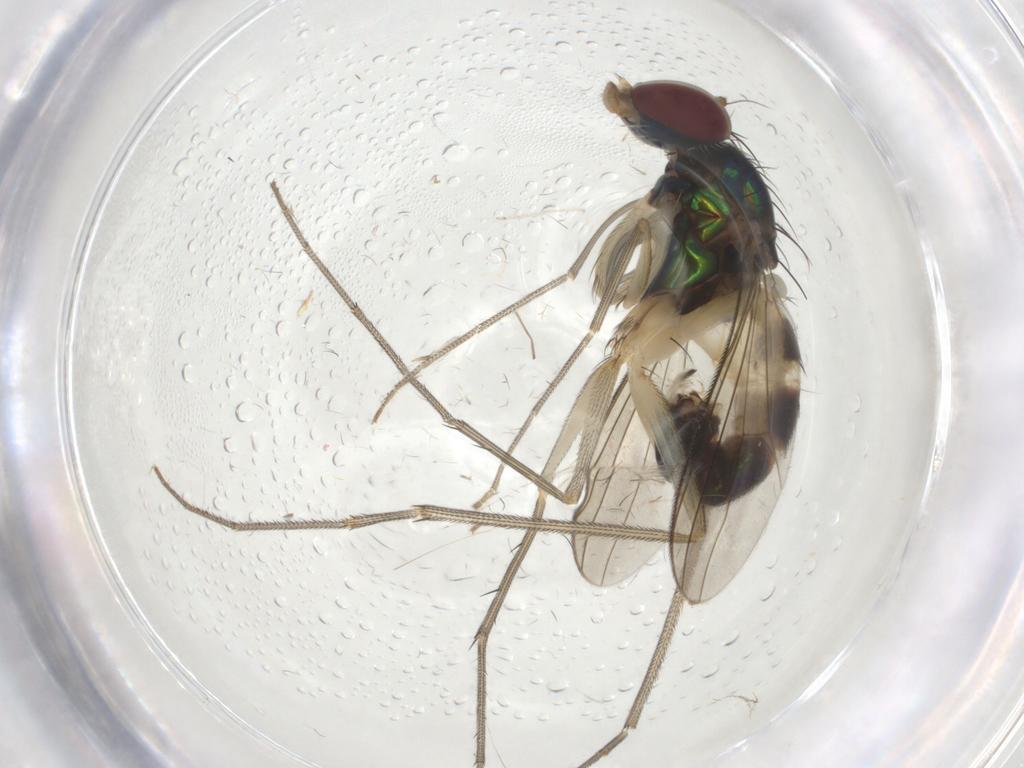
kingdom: Animalia
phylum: Arthropoda
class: Insecta
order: Diptera
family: Dolichopodidae
